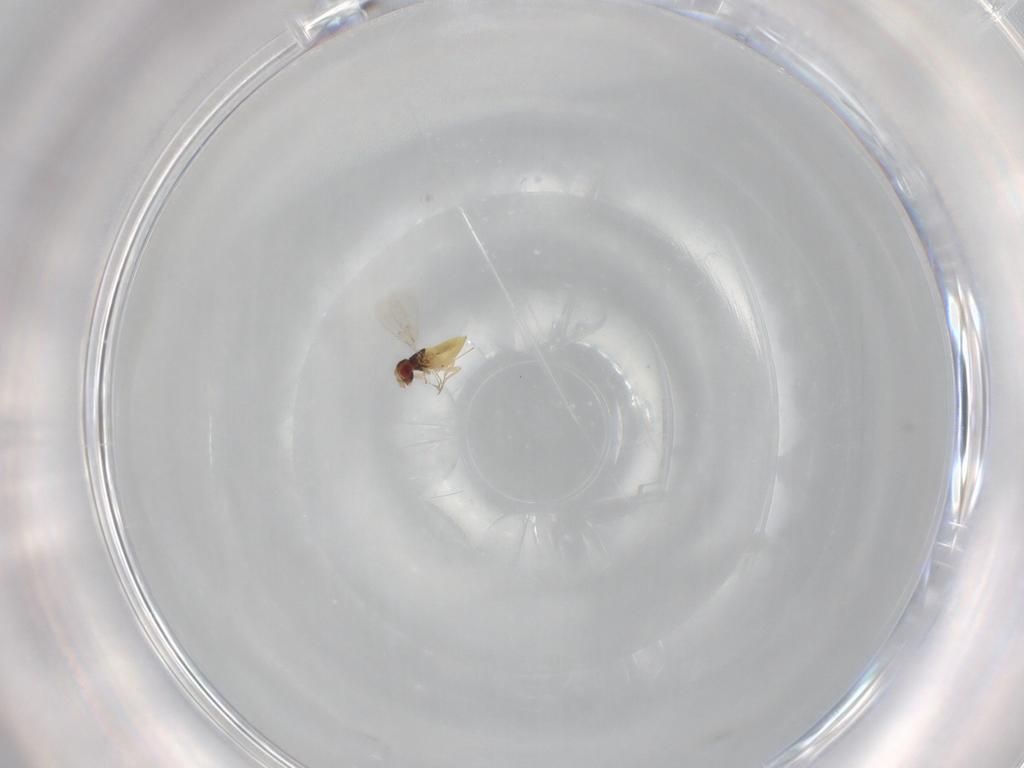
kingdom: Animalia
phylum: Arthropoda
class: Insecta
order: Hymenoptera
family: Trichogrammatidae
